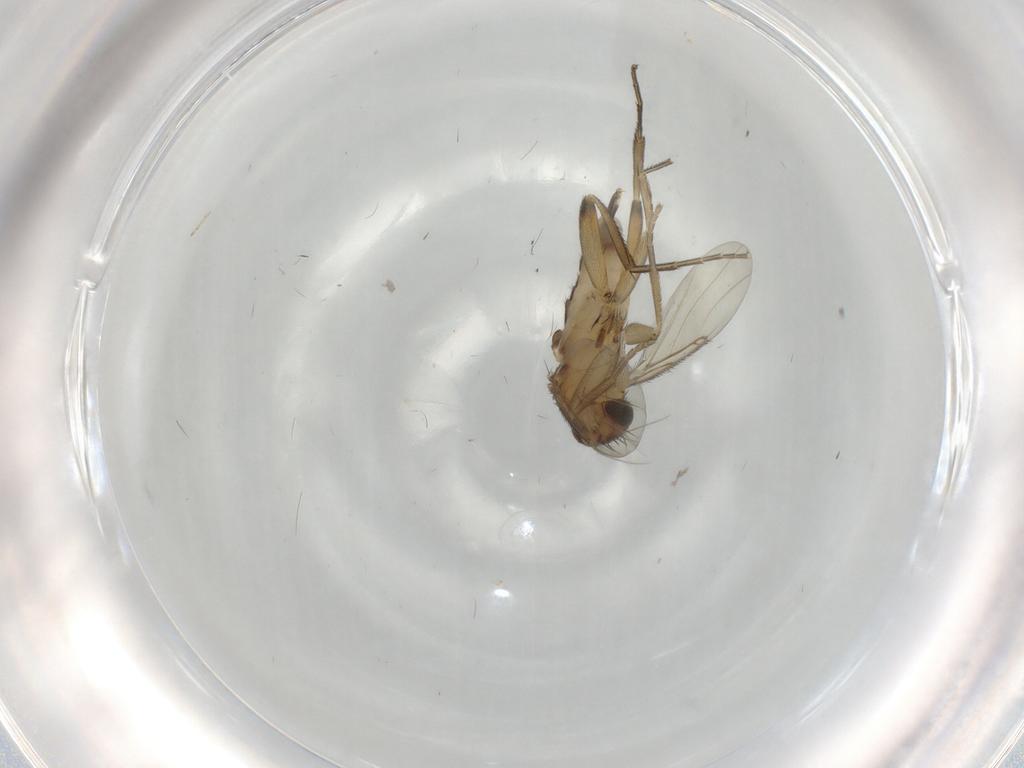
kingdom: Animalia
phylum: Arthropoda
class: Insecta
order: Diptera
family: Phoridae
